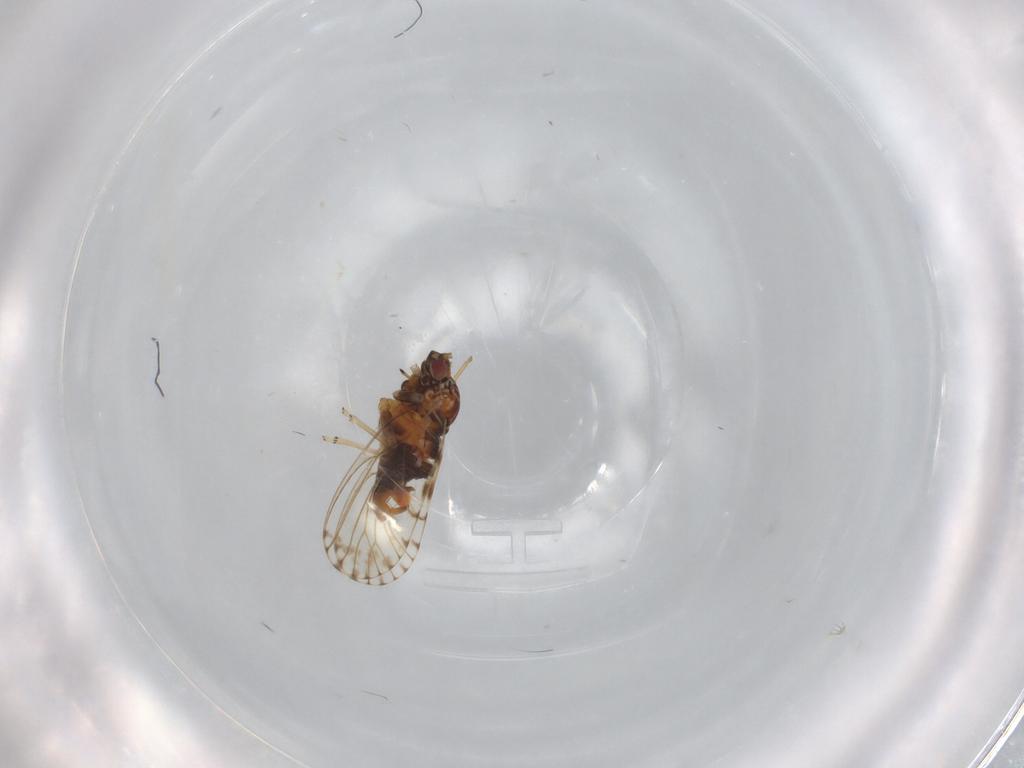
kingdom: Animalia
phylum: Arthropoda
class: Insecta
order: Hemiptera
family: Psyllidae
